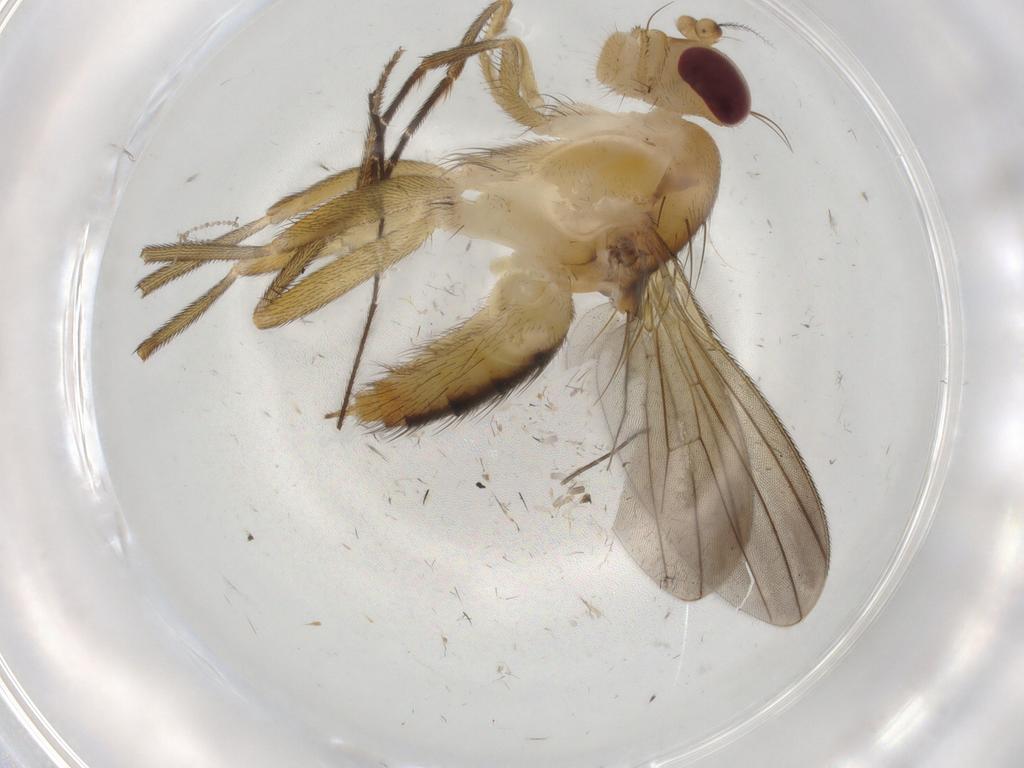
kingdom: Animalia
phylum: Arthropoda
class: Insecta
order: Diptera
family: Clusiidae
